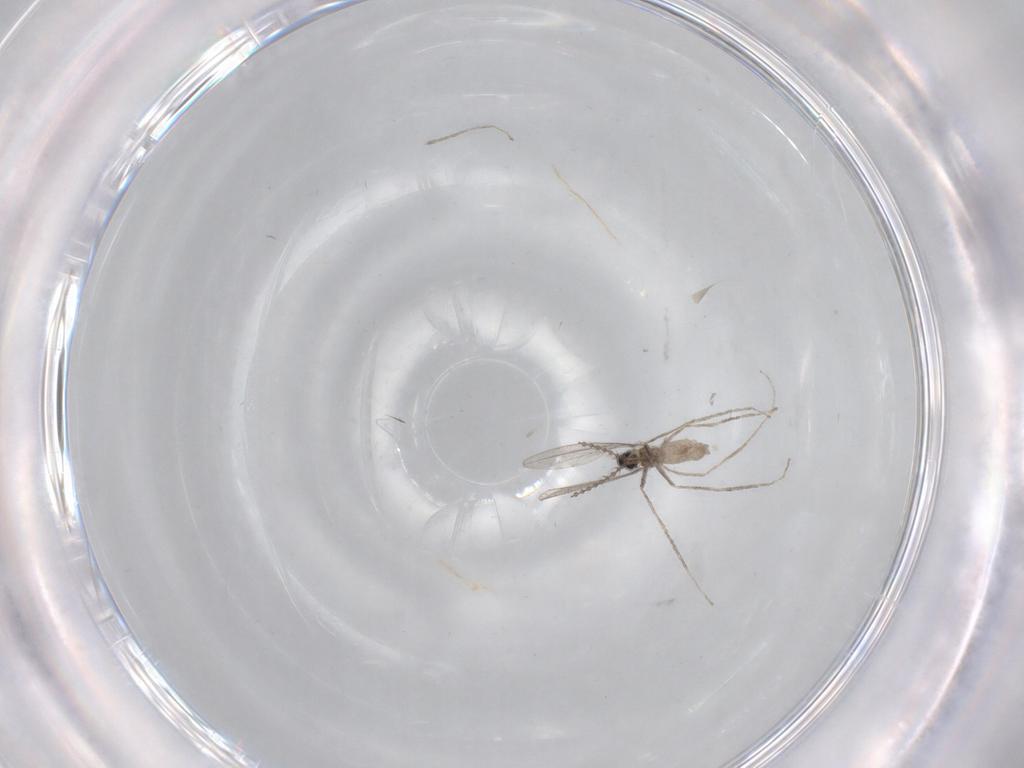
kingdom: Animalia
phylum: Arthropoda
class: Insecta
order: Diptera
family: Cecidomyiidae
